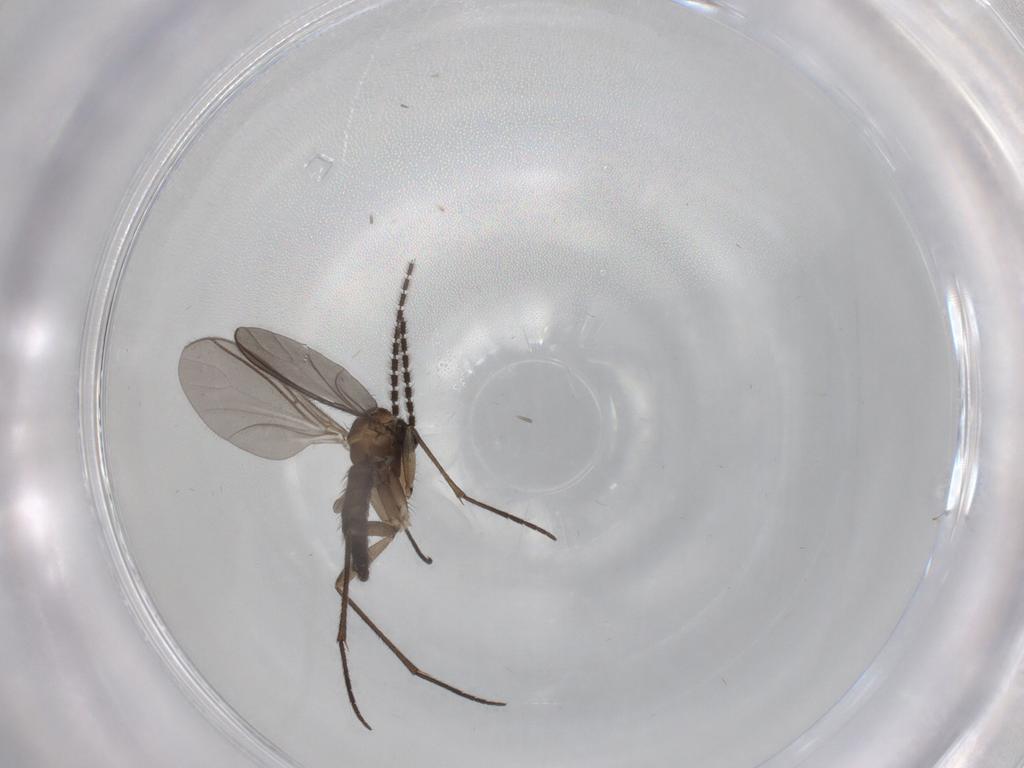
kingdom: Animalia
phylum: Arthropoda
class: Insecta
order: Diptera
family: Sciaridae
